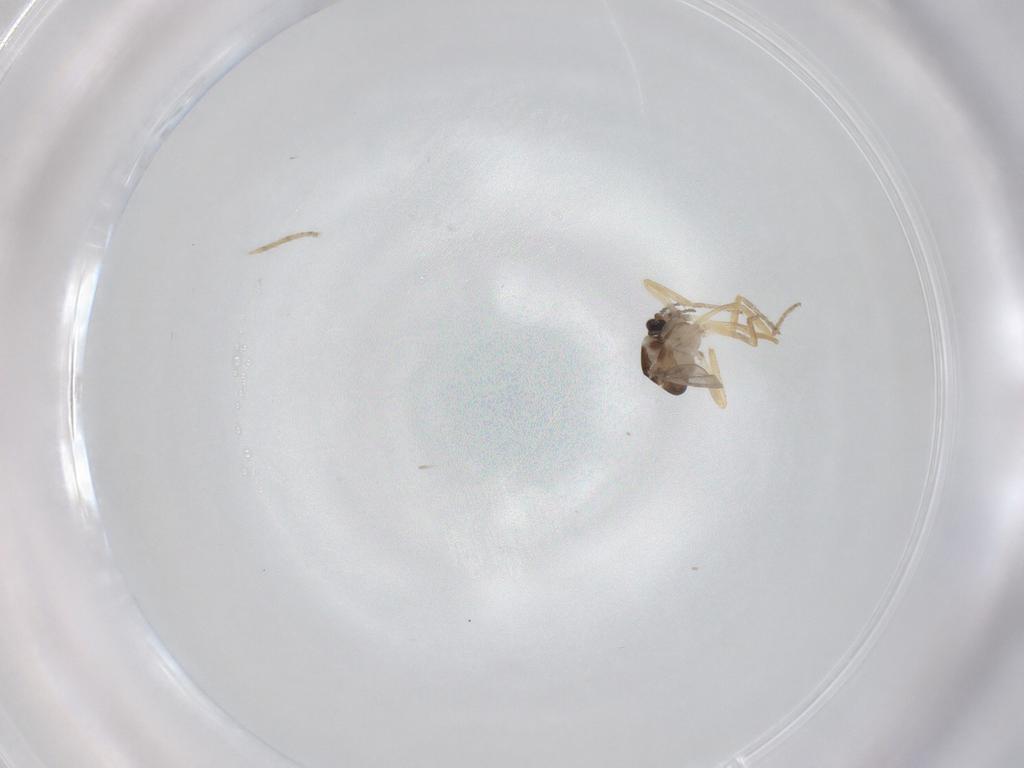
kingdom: Animalia
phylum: Arthropoda
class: Insecta
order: Diptera
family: Ceratopogonidae
